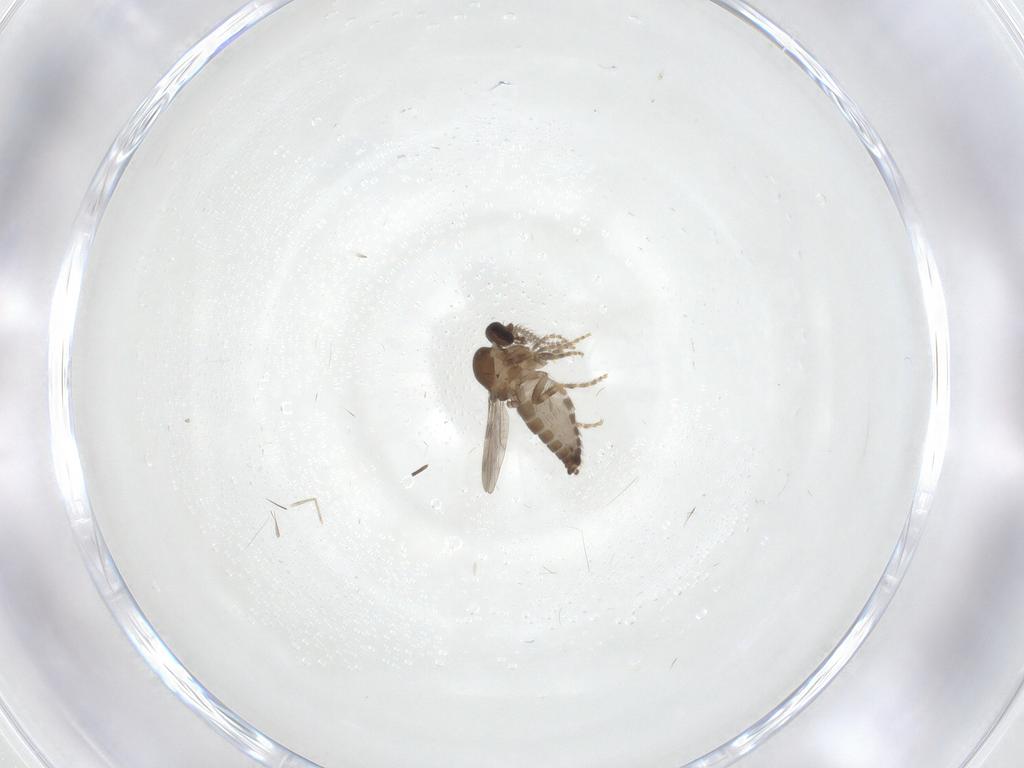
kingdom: Animalia
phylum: Arthropoda
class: Insecta
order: Diptera
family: Ceratopogonidae
